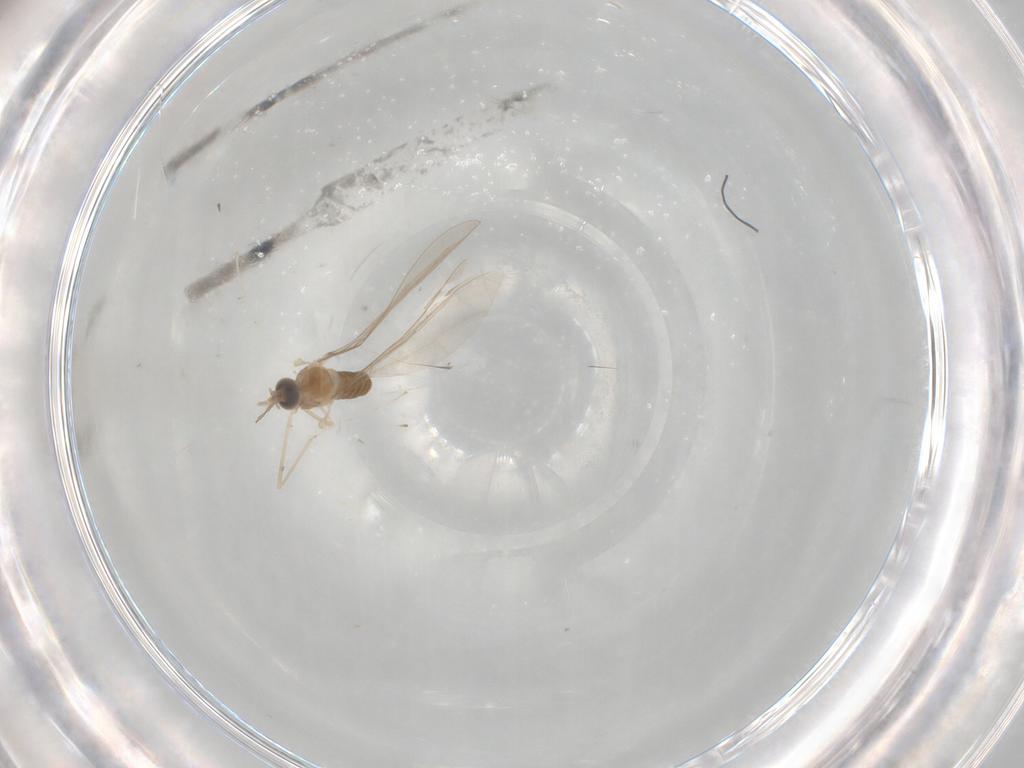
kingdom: Animalia
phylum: Arthropoda
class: Insecta
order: Diptera
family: Cecidomyiidae
